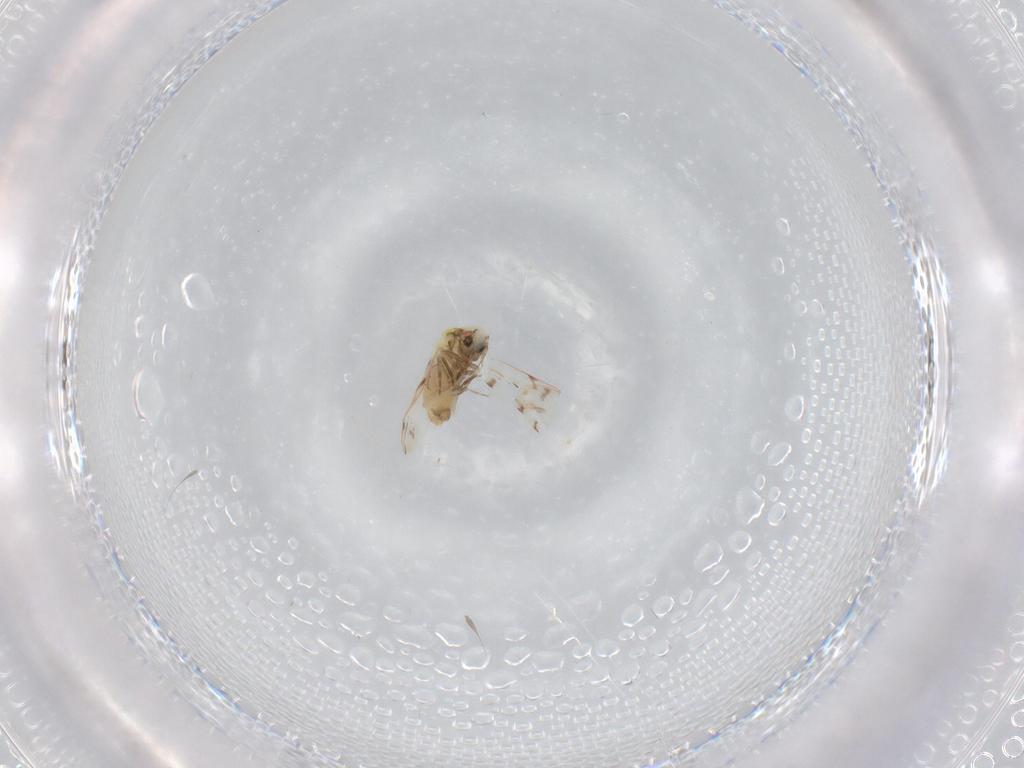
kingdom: Animalia
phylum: Arthropoda
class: Insecta
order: Hemiptera
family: Aleyrodidae
